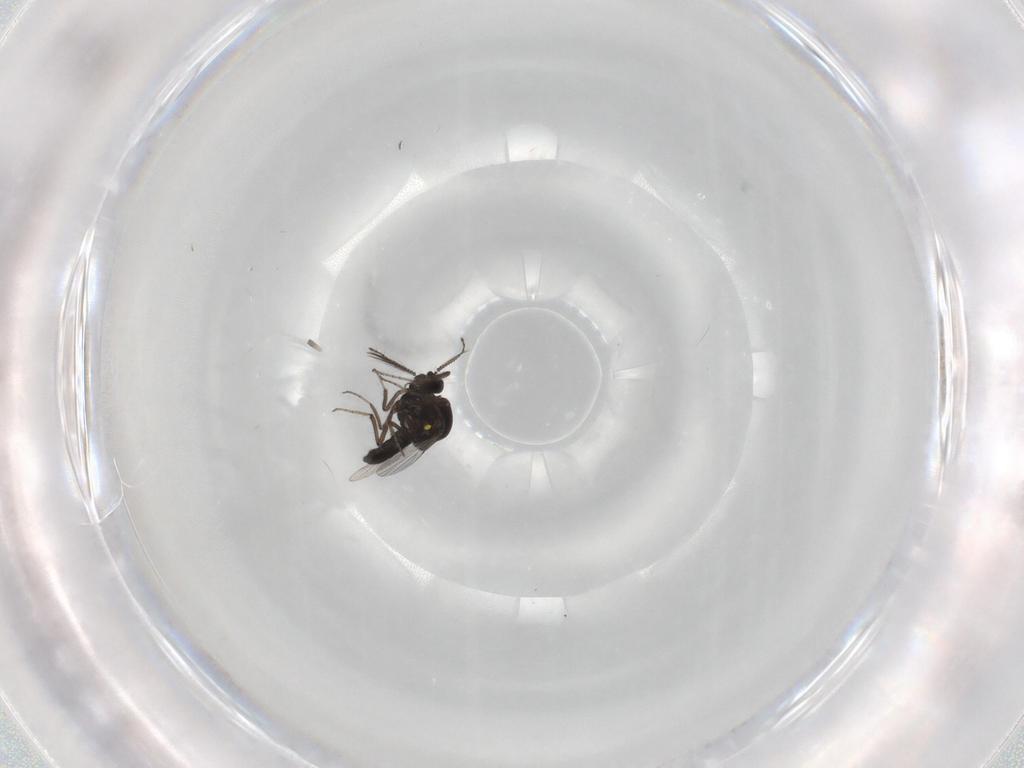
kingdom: Animalia
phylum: Arthropoda
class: Insecta
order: Diptera
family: Ceratopogonidae
